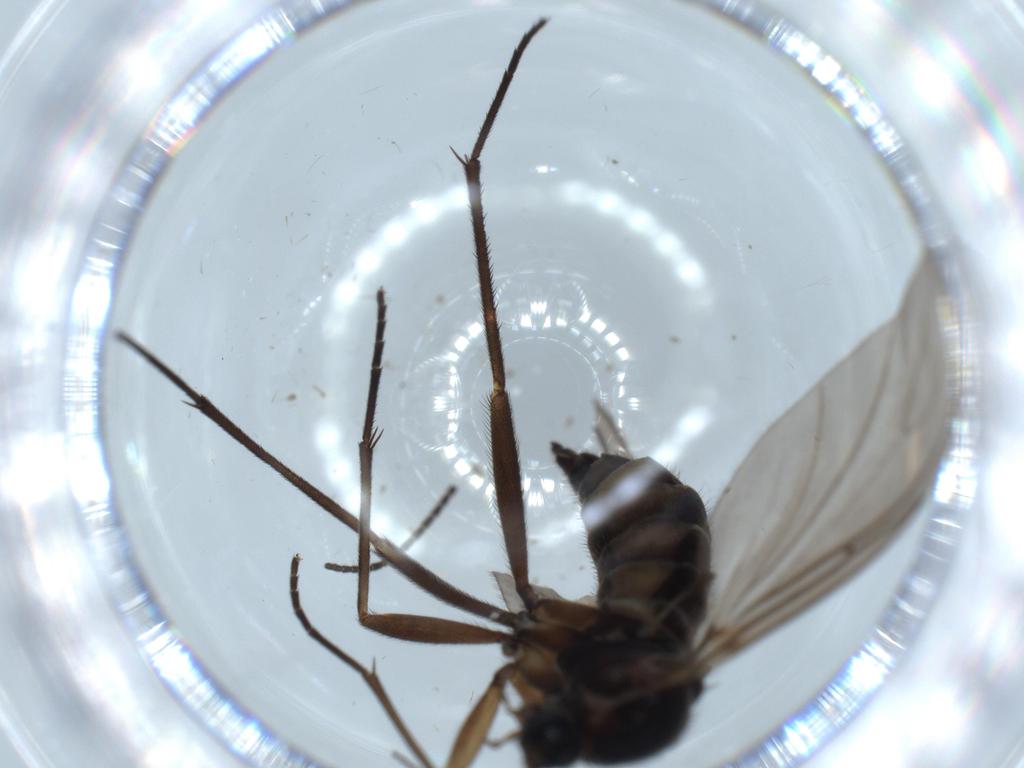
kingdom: Animalia
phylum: Arthropoda
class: Insecta
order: Diptera
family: Sciaridae
